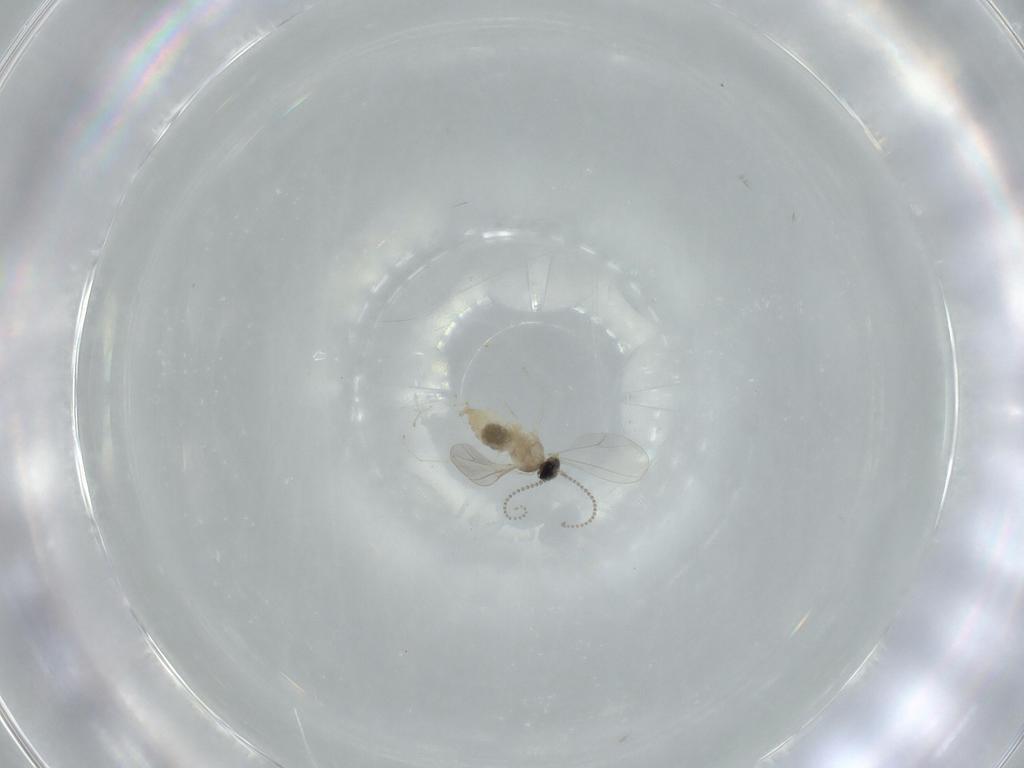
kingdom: Animalia
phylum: Arthropoda
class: Insecta
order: Diptera
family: Cecidomyiidae
